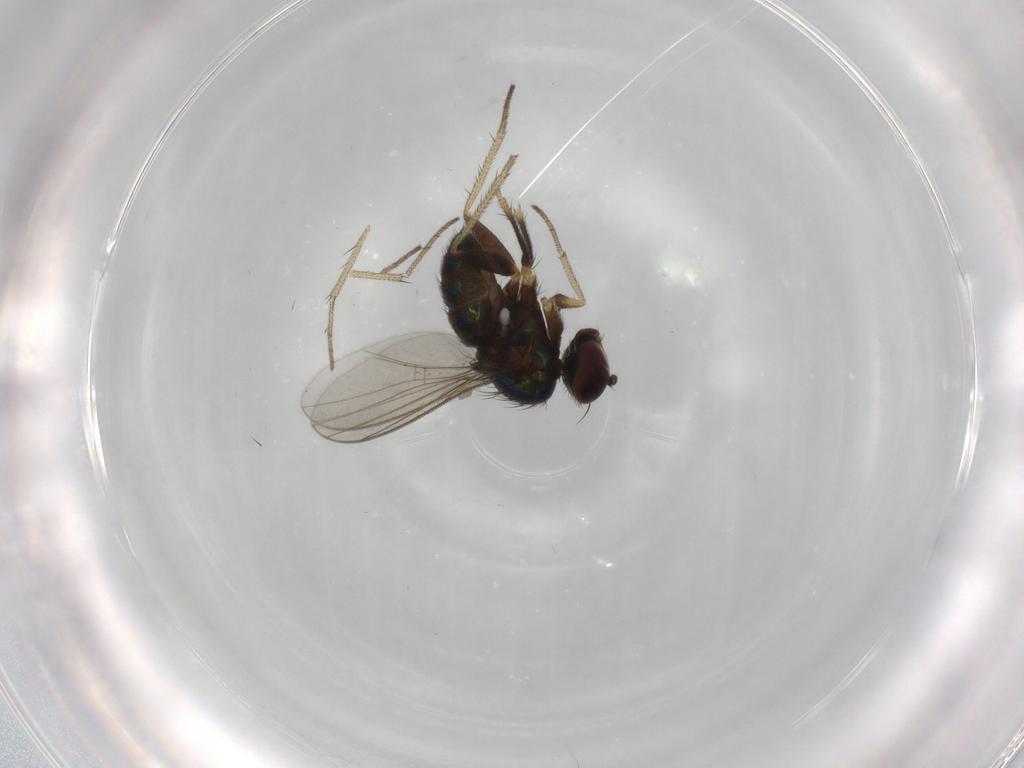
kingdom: Animalia
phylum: Arthropoda
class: Insecta
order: Diptera
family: Dolichopodidae
